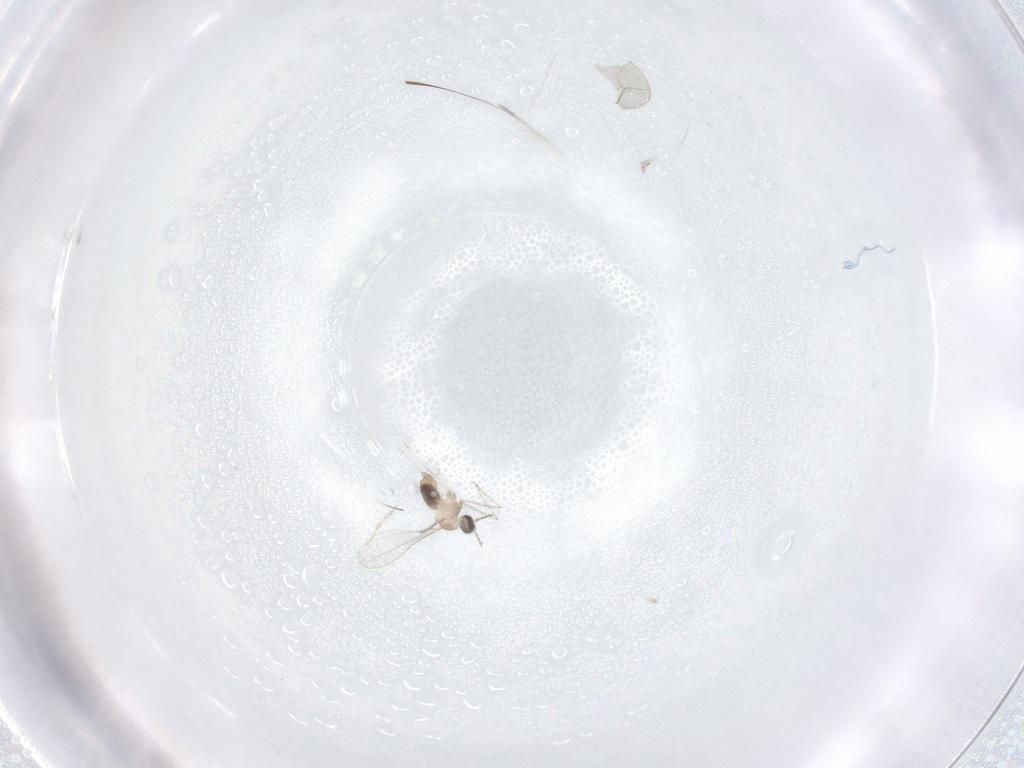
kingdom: Animalia
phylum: Arthropoda
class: Insecta
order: Diptera
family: Cecidomyiidae
